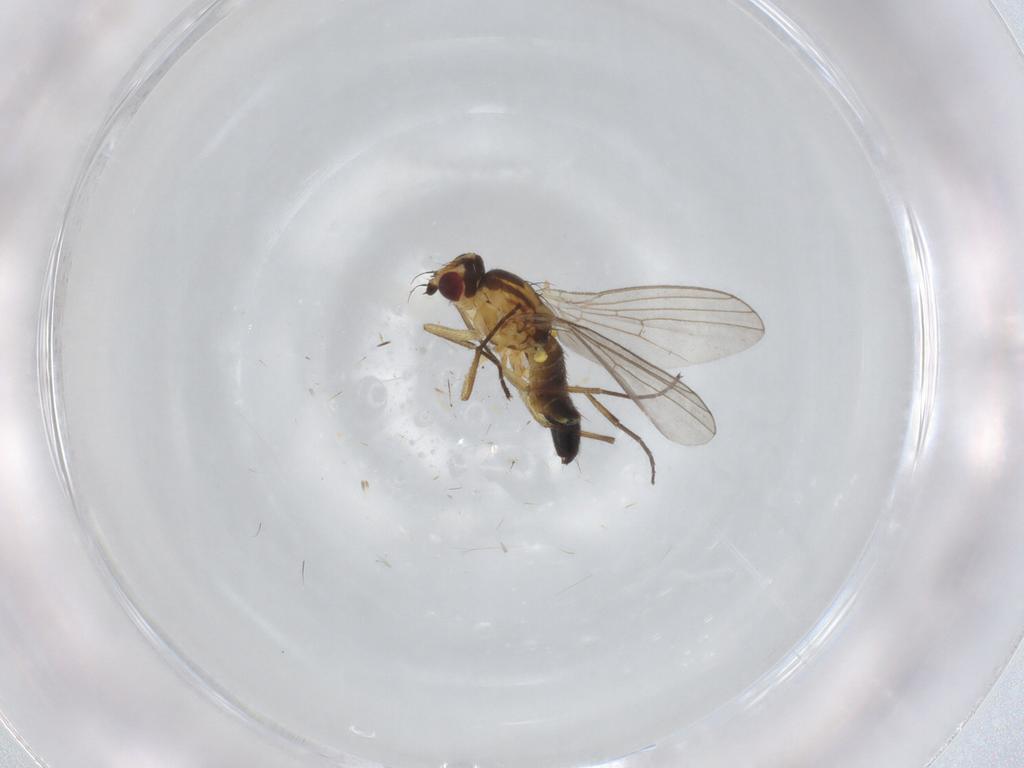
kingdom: Animalia
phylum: Arthropoda
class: Insecta
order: Diptera
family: Agromyzidae
